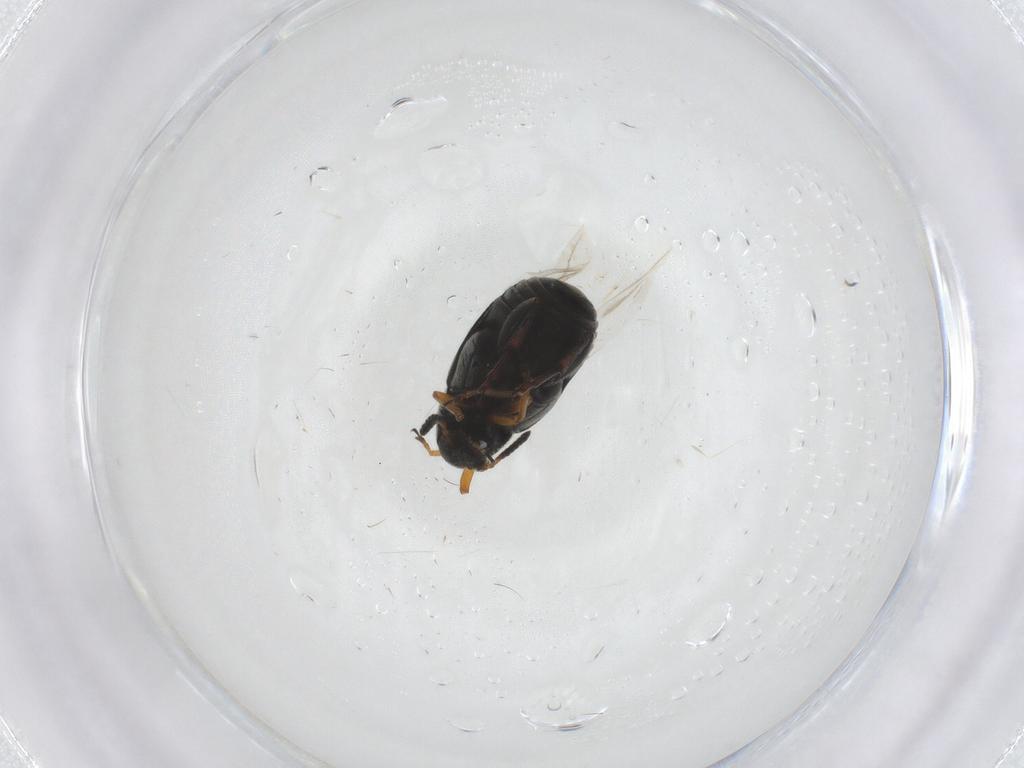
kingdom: Animalia
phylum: Arthropoda
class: Insecta
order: Coleoptera
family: Chrysomelidae
